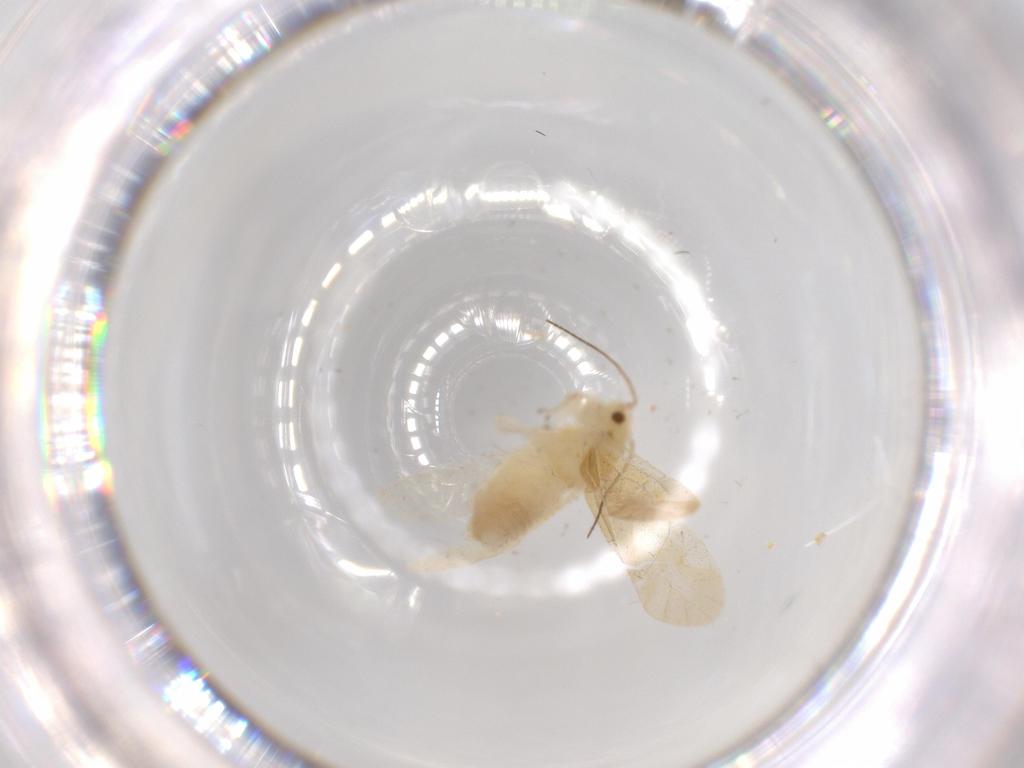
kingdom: Animalia
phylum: Arthropoda
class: Insecta
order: Psocodea
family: Caeciliusidae
